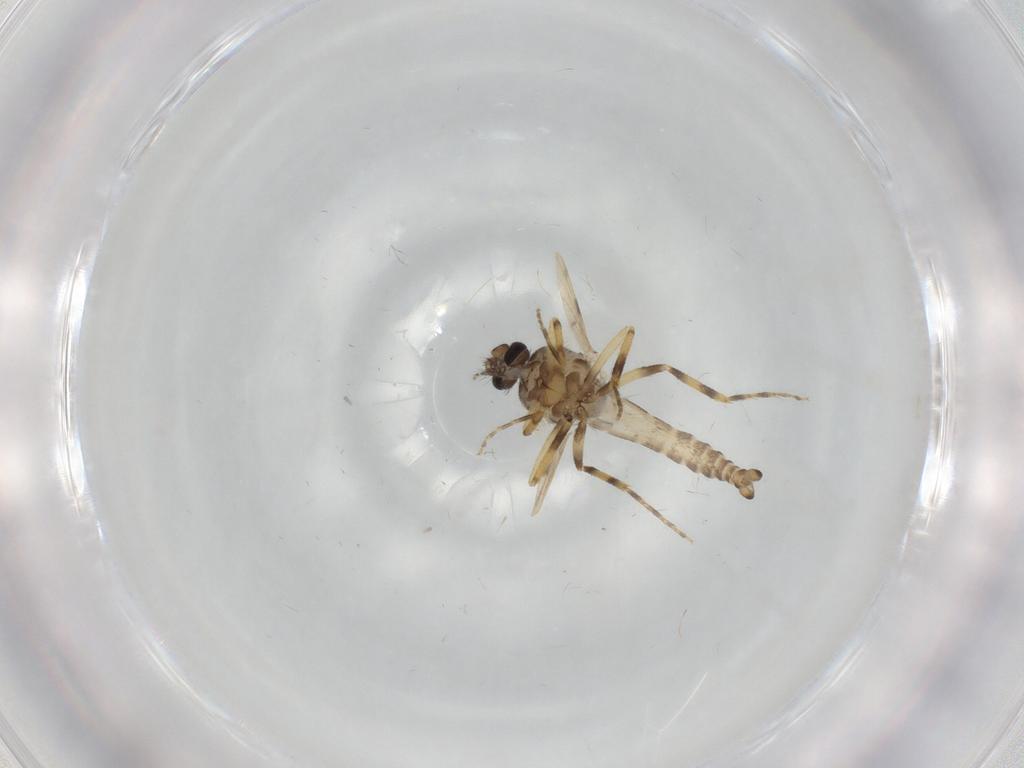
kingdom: Animalia
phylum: Arthropoda
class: Insecta
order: Diptera
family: Ceratopogonidae
